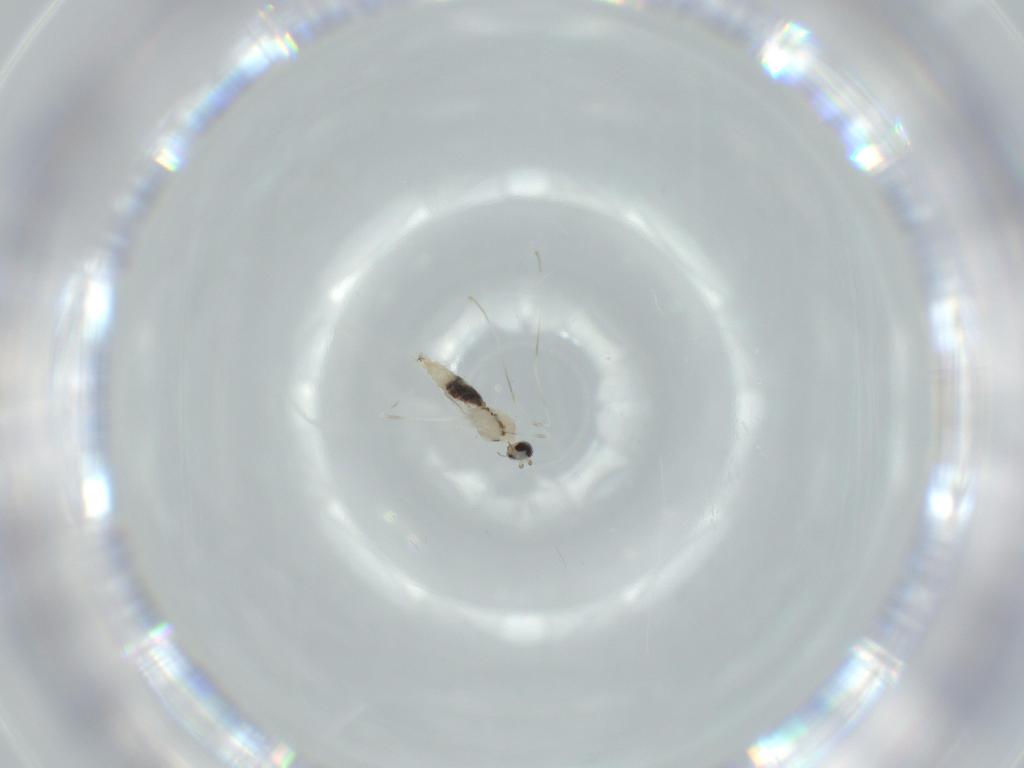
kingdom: Animalia
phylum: Arthropoda
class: Insecta
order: Diptera
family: Cecidomyiidae
